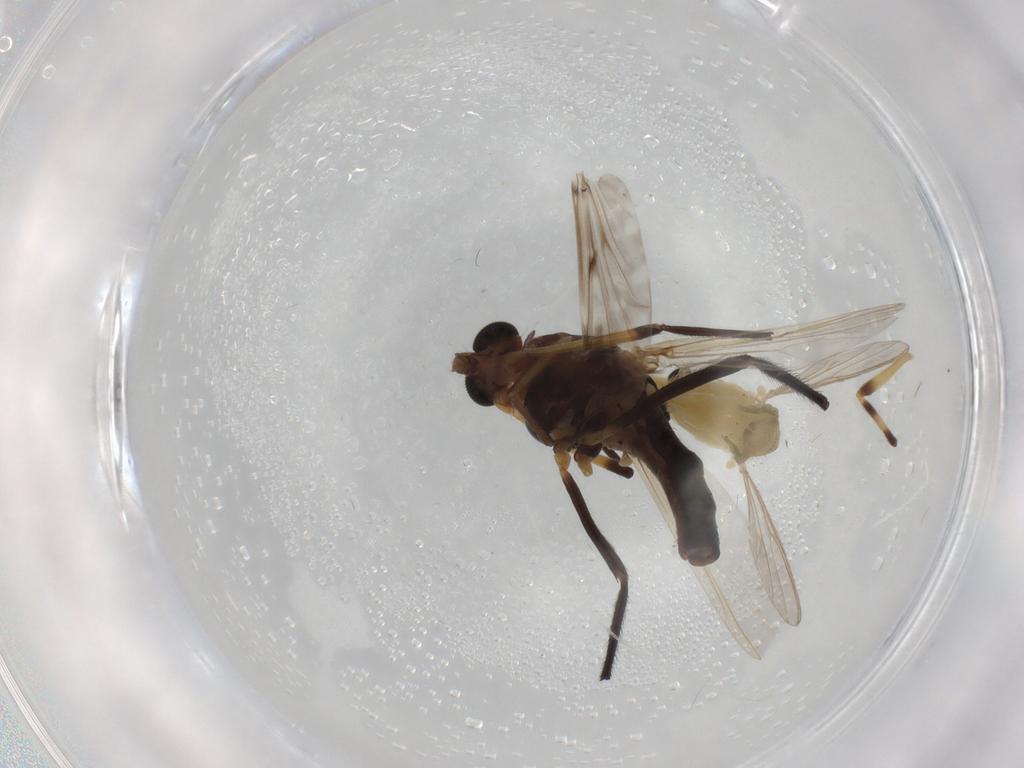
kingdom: Animalia
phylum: Arthropoda
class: Insecta
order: Diptera
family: Chironomidae
